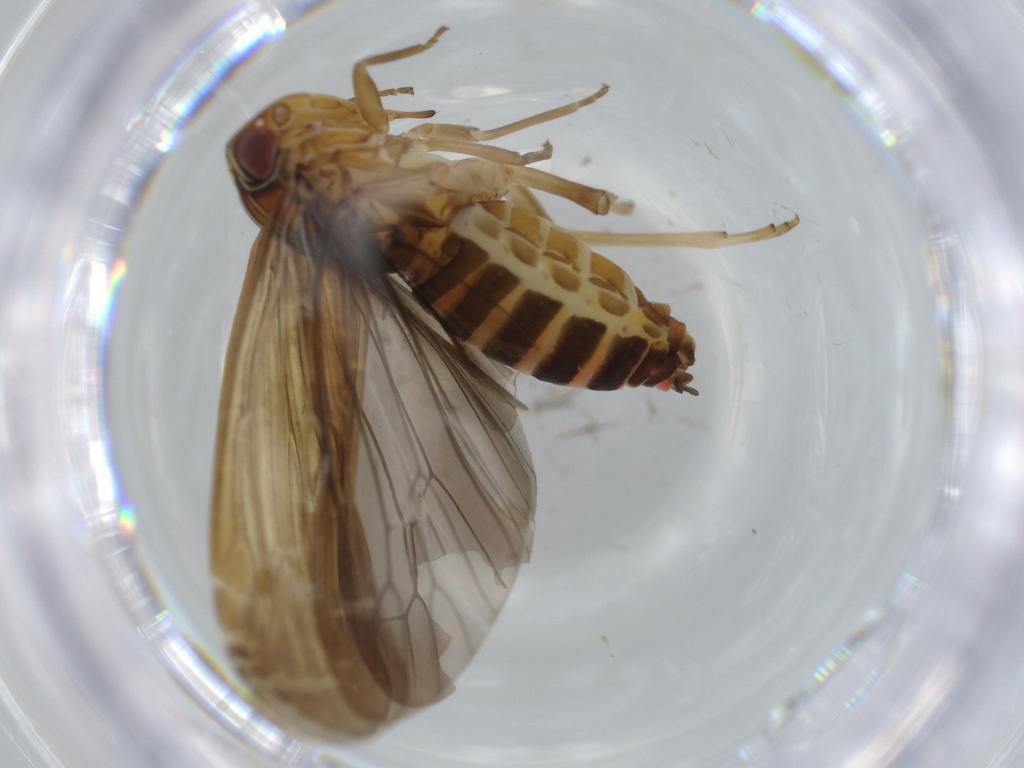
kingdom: Animalia
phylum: Arthropoda
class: Insecta
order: Hemiptera
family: Achilidae
